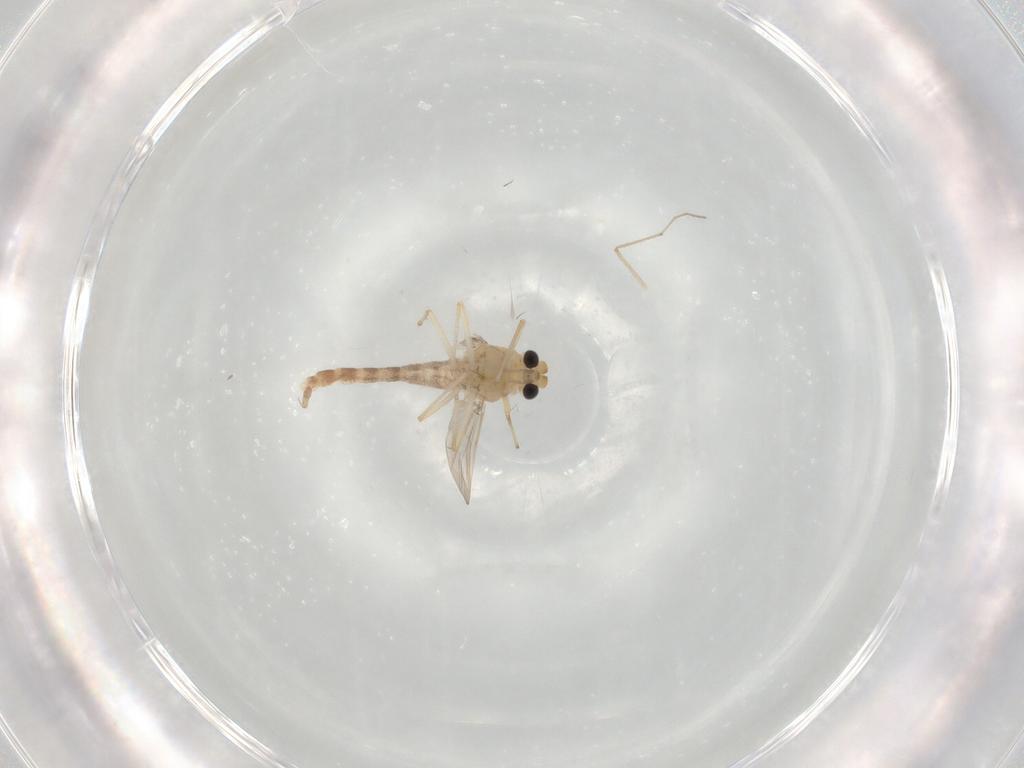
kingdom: Animalia
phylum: Arthropoda
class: Insecta
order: Diptera
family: Chironomidae
